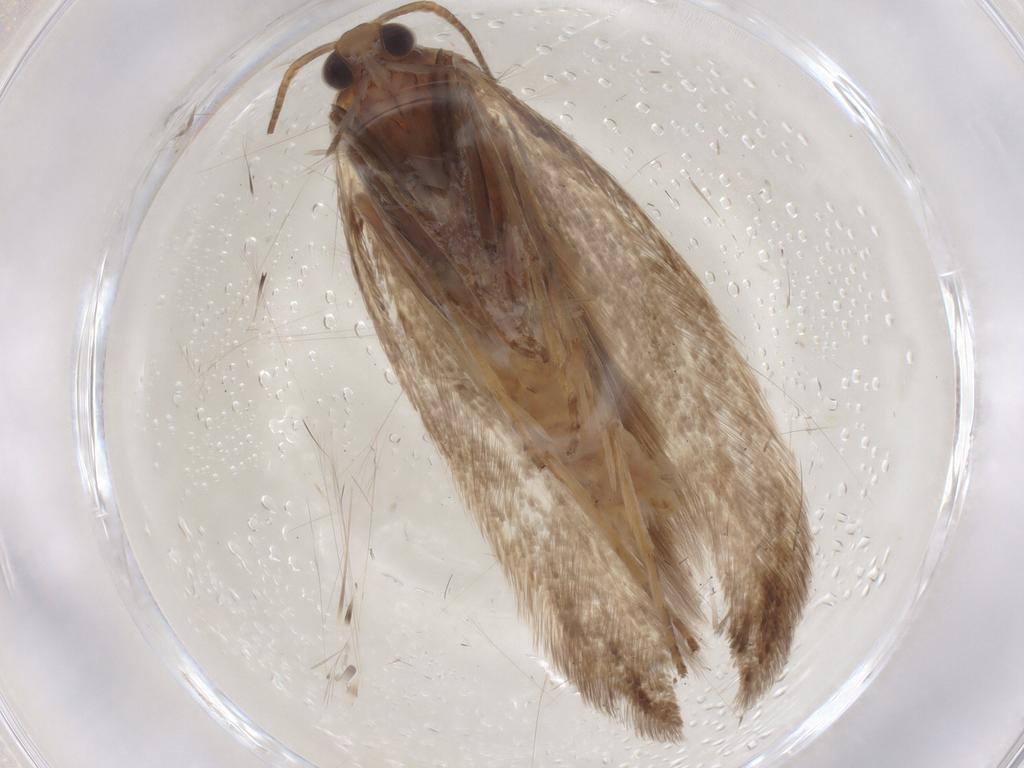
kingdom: Animalia
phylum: Arthropoda
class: Insecta
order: Lepidoptera
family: Coleophoridae
